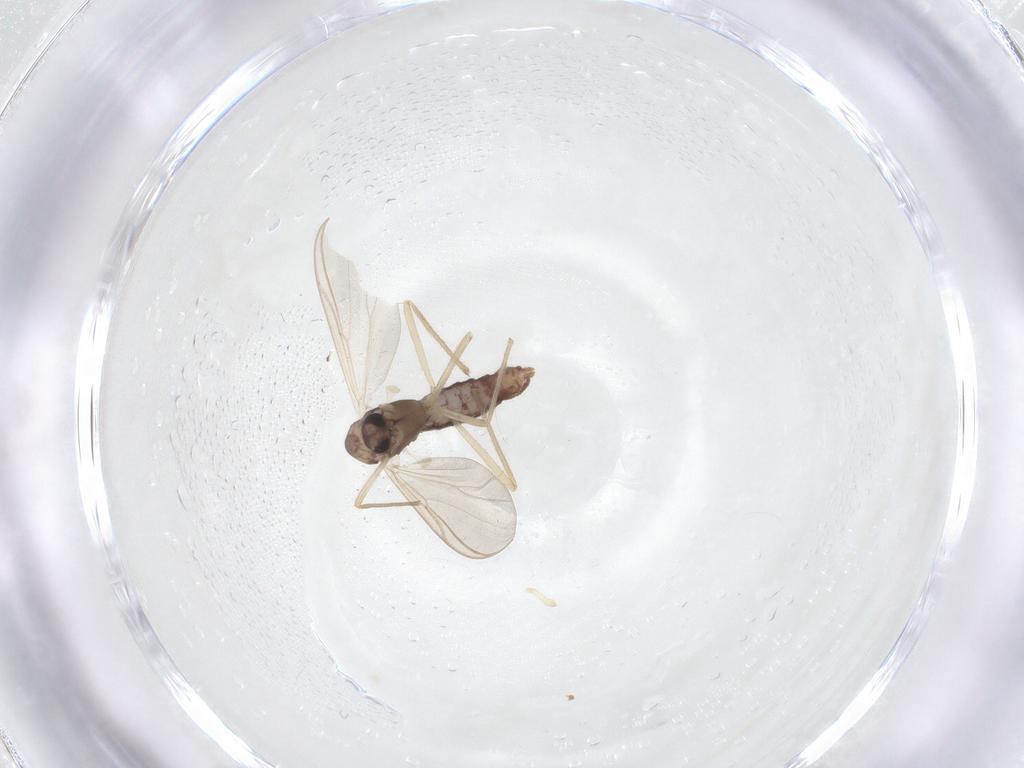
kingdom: Animalia
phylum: Arthropoda
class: Insecta
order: Diptera
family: Chironomidae
